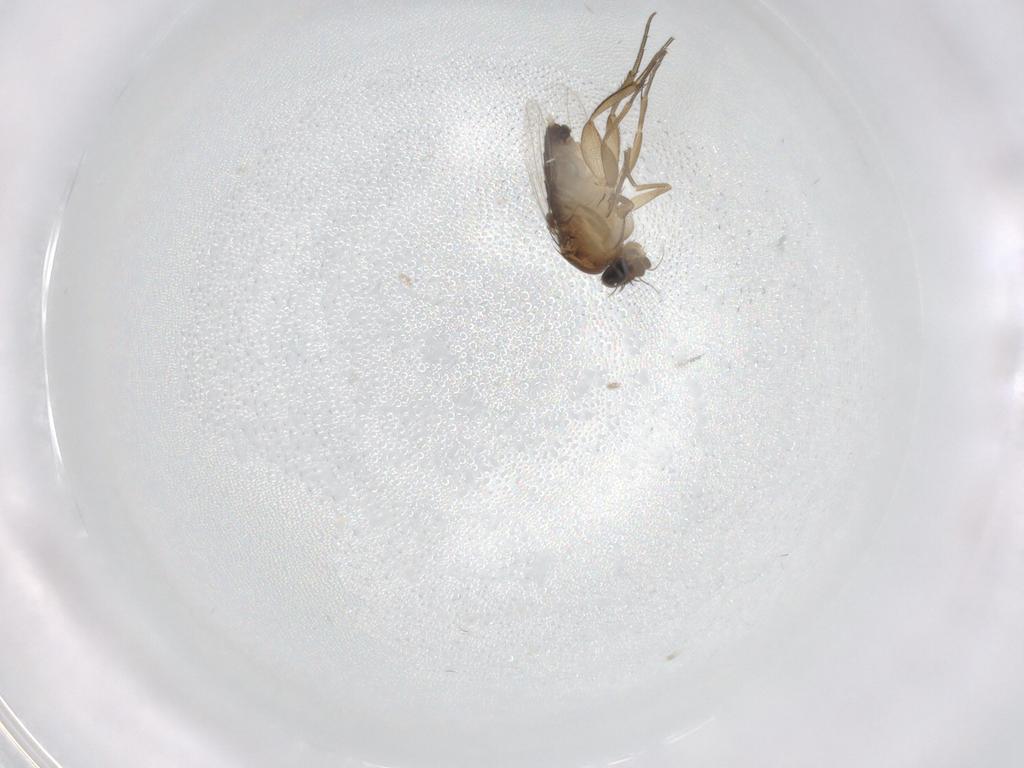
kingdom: Animalia
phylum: Arthropoda
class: Insecta
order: Diptera
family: Phoridae
